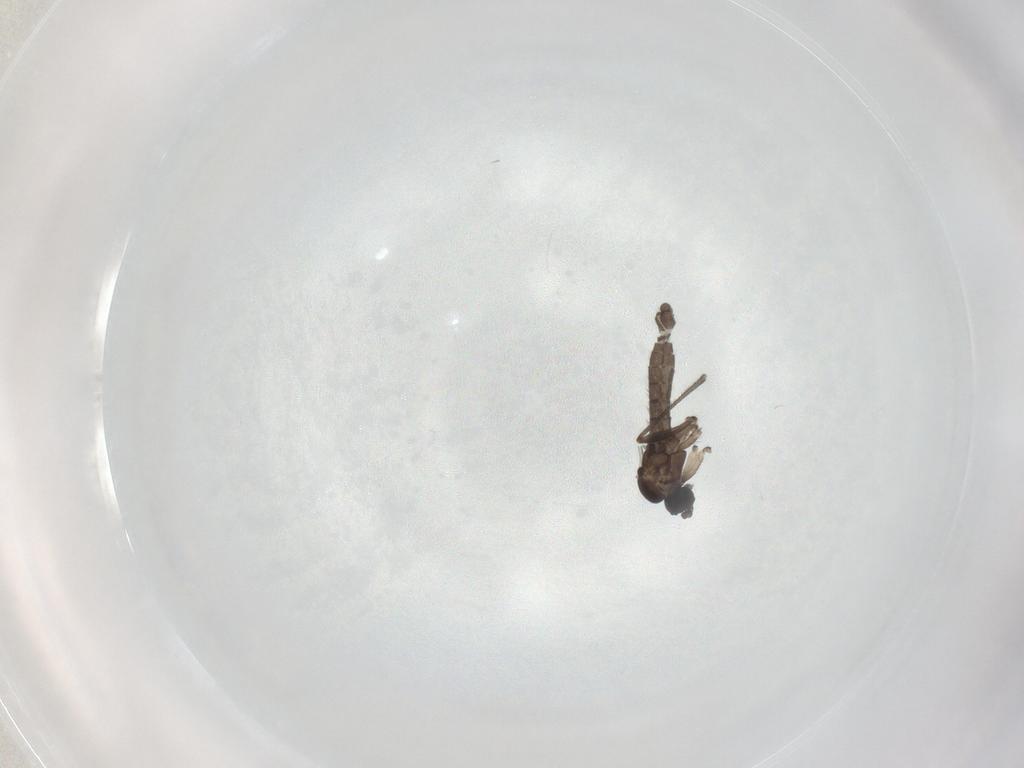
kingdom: Animalia
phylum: Arthropoda
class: Insecta
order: Diptera
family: Sciaridae
